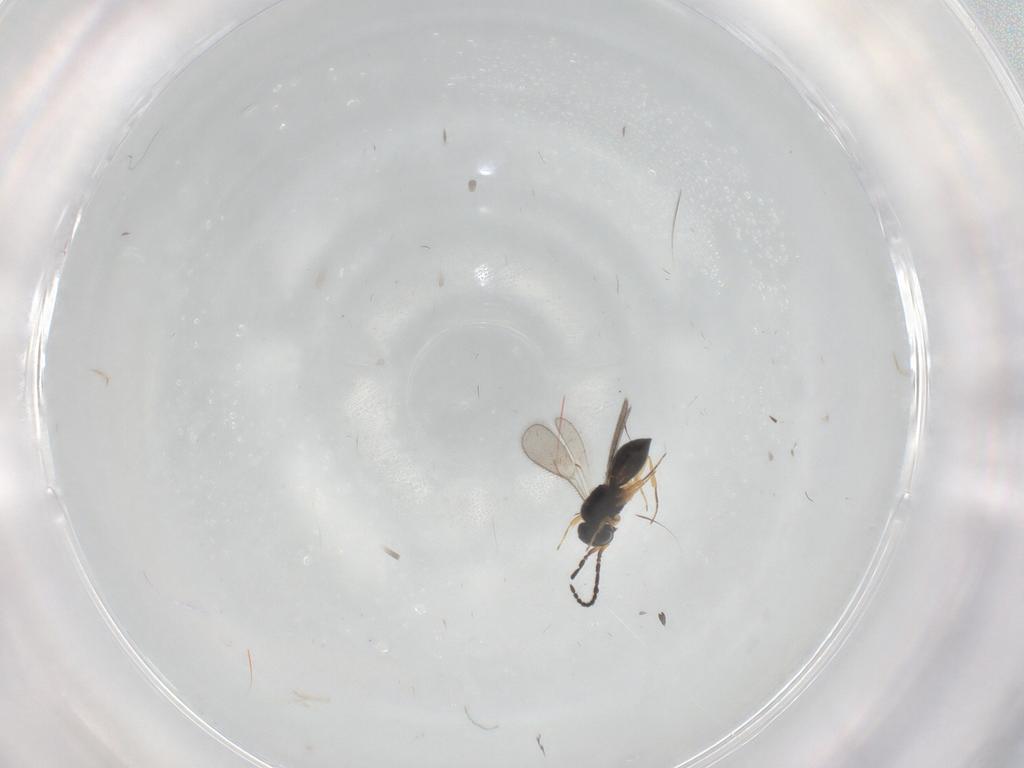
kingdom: Animalia
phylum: Arthropoda
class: Insecta
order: Hymenoptera
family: Scelionidae
